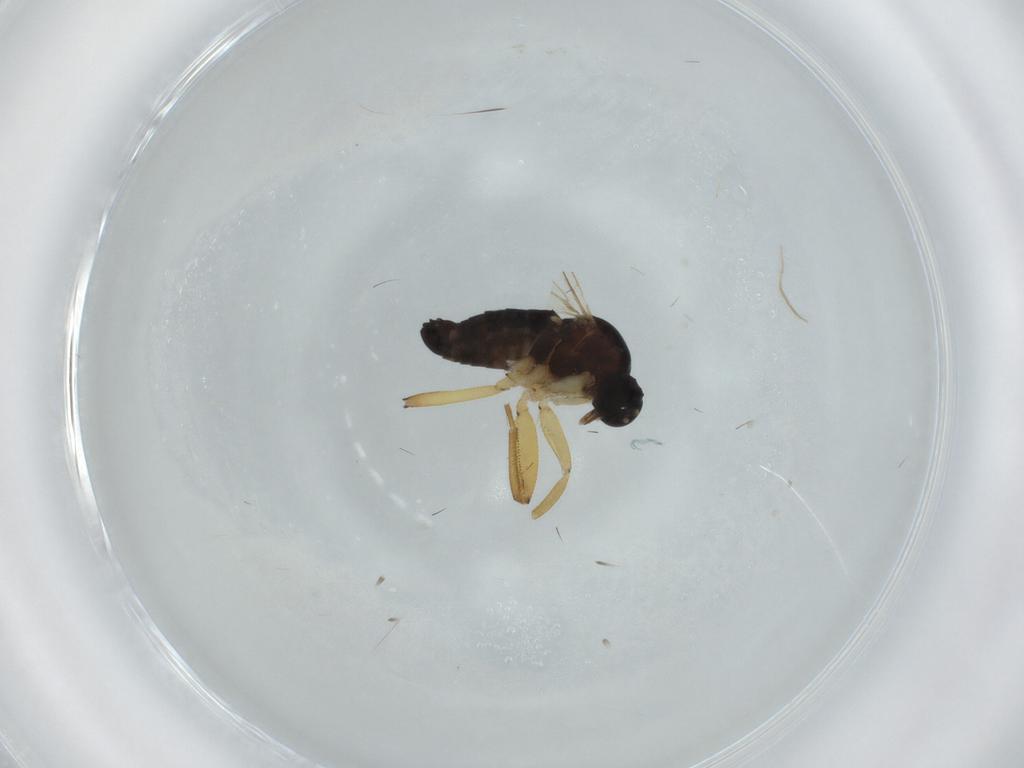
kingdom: Animalia
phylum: Arthropoda
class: Insecta
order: Diptera
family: Hybotidae
